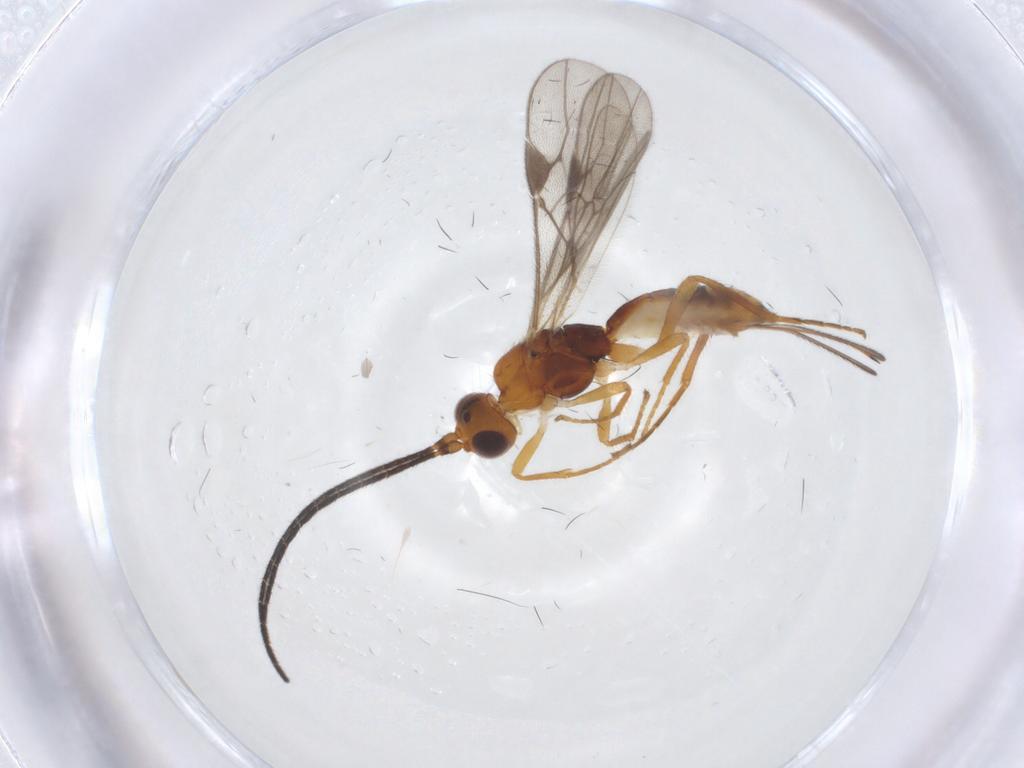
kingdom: Animalia
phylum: Arthropoda
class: Insecta
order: Hymenoptera
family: Braconidae
